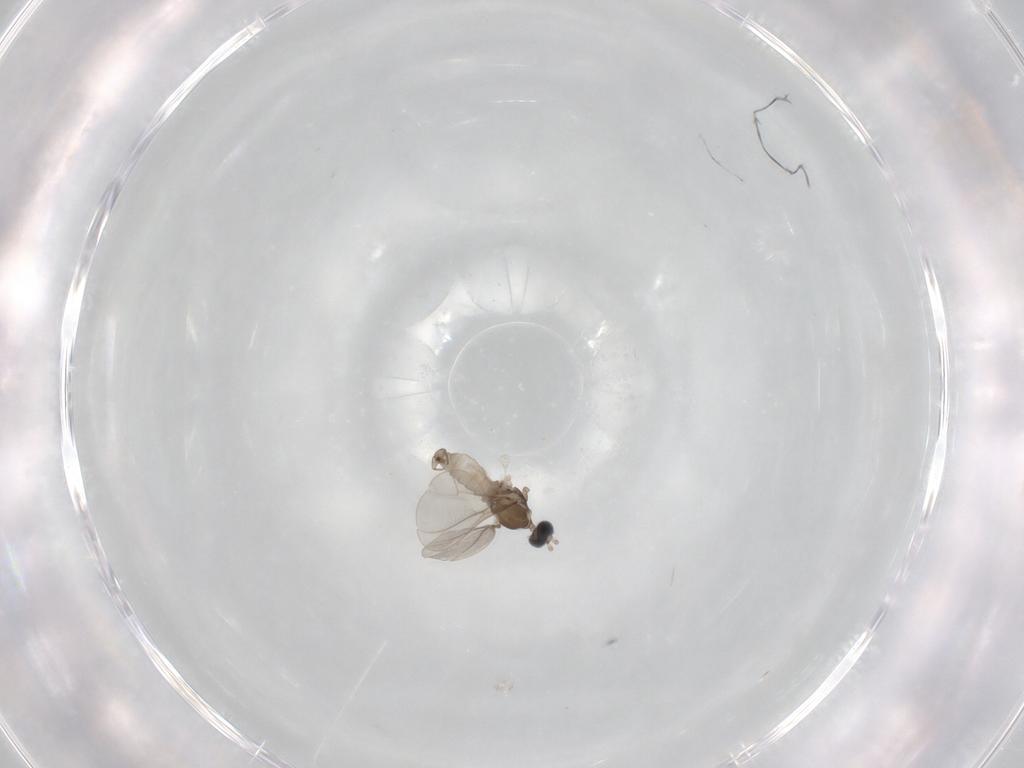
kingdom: Animalia
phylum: Arthropoda
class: Insecta
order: Diptera
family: Cecidomyiidae
